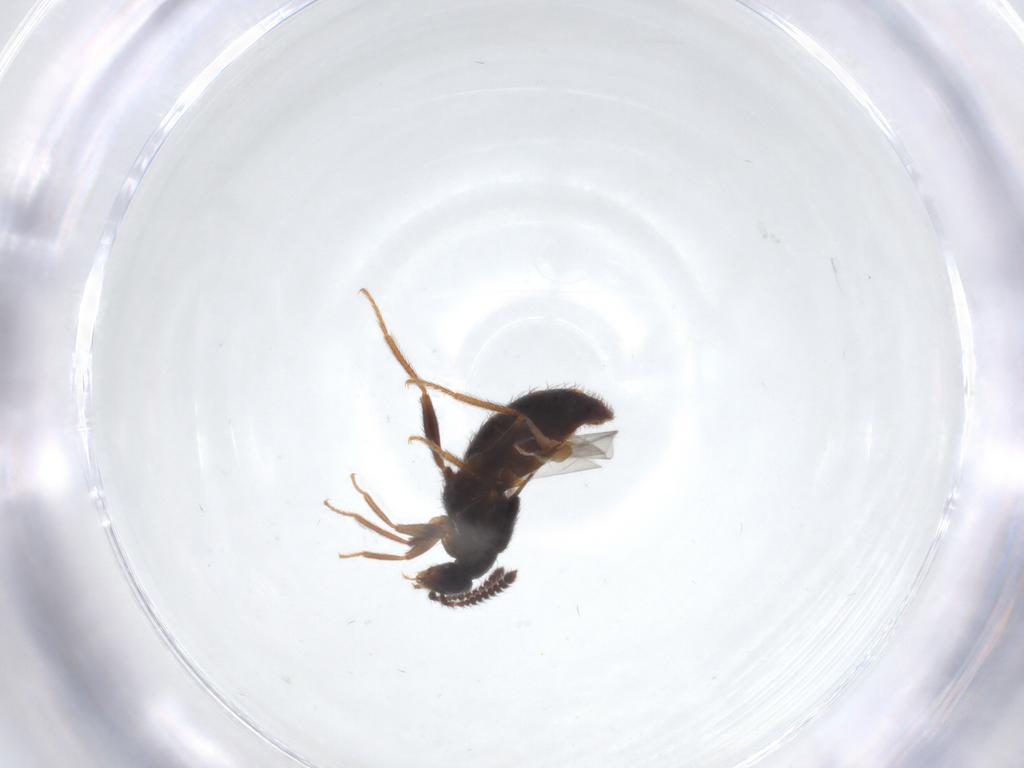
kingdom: Animalia
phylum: Arthropoda
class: Insecta
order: Coleoptera
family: Staphylinidae
